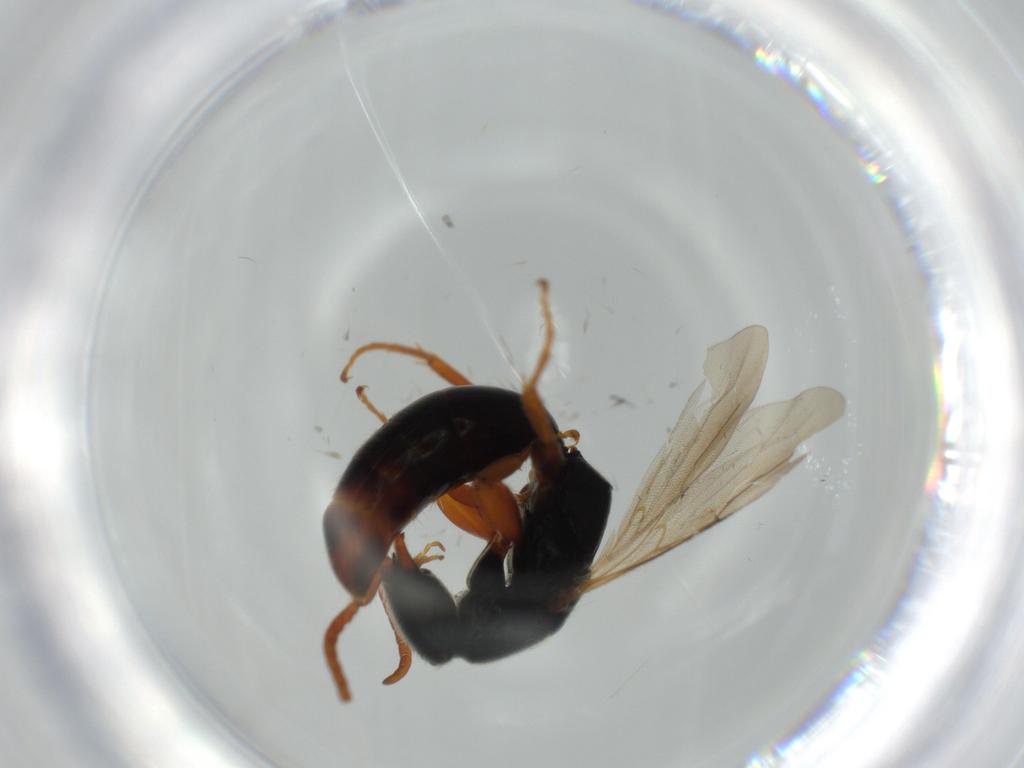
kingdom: Animalia
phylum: Arthropoda
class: Insecta
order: Hymenoptera
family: Bethylidae
